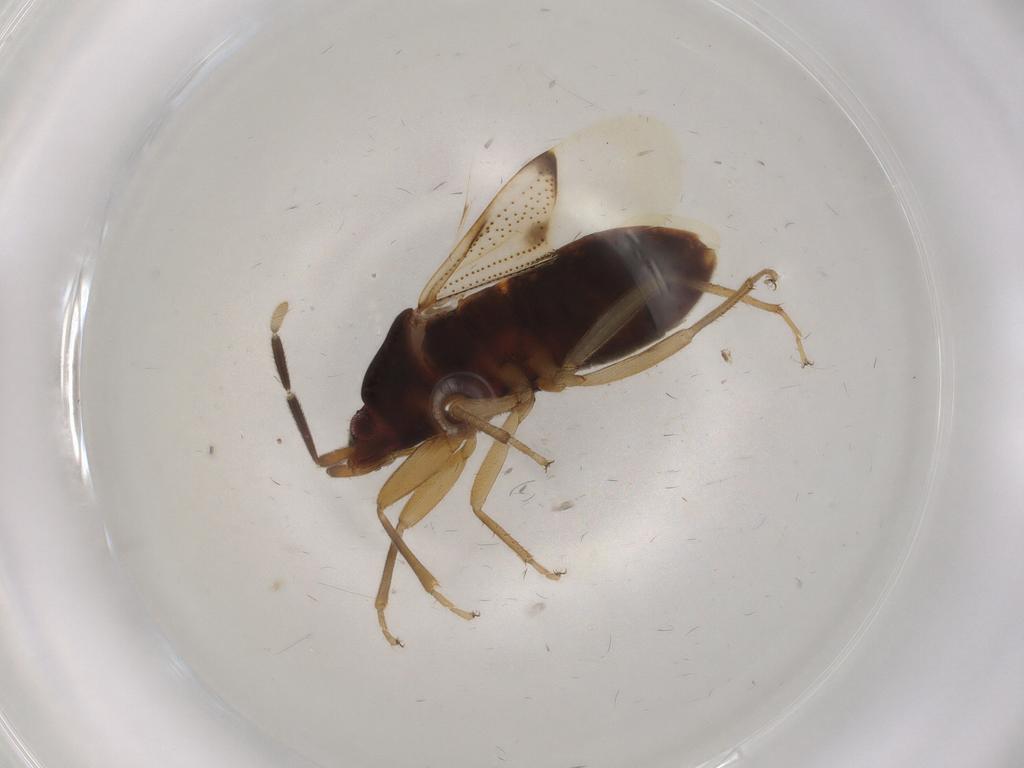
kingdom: Animalia
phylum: Arthropoda
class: Insecta
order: Hemiptera
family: Rhyparochromidae
